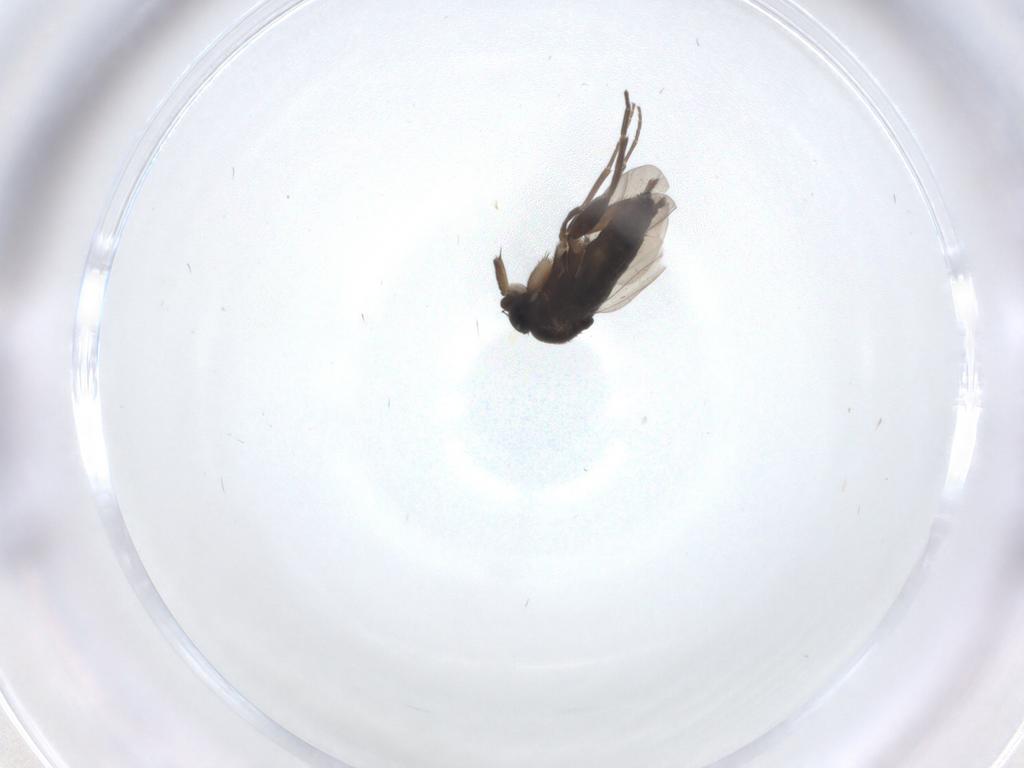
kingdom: Animalia
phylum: Arthropoda
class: Insecta
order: Diptera
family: Phoridae
